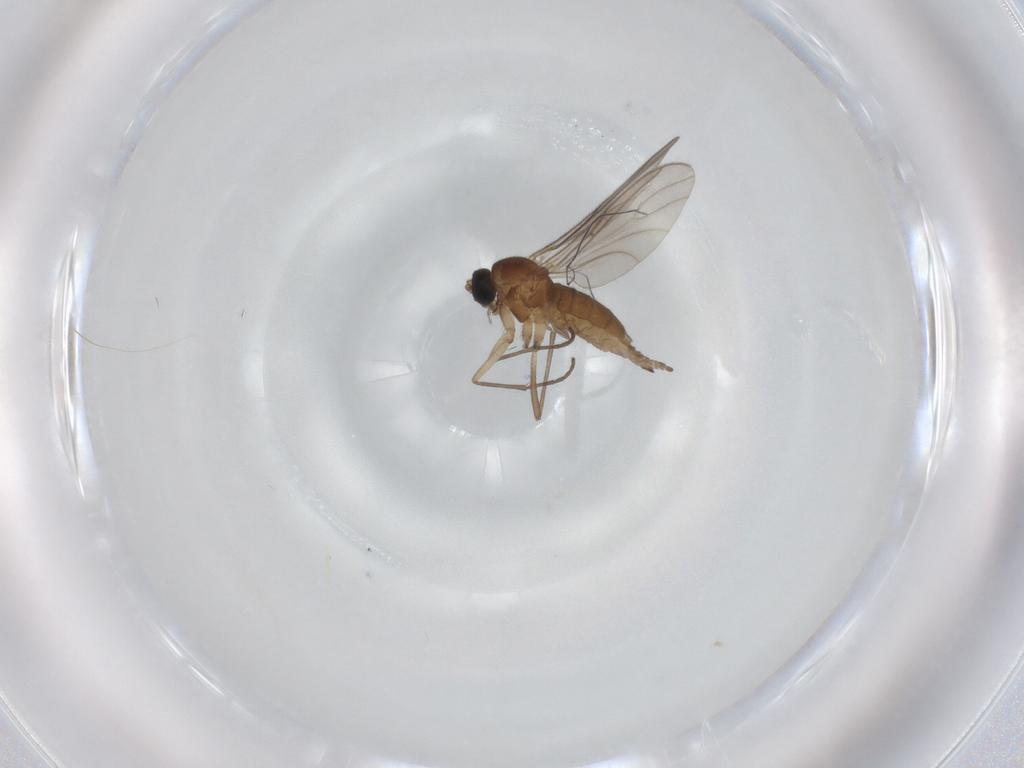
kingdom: Animalia
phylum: Arthropoda
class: Insecta
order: Diptera
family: Sciaridae
